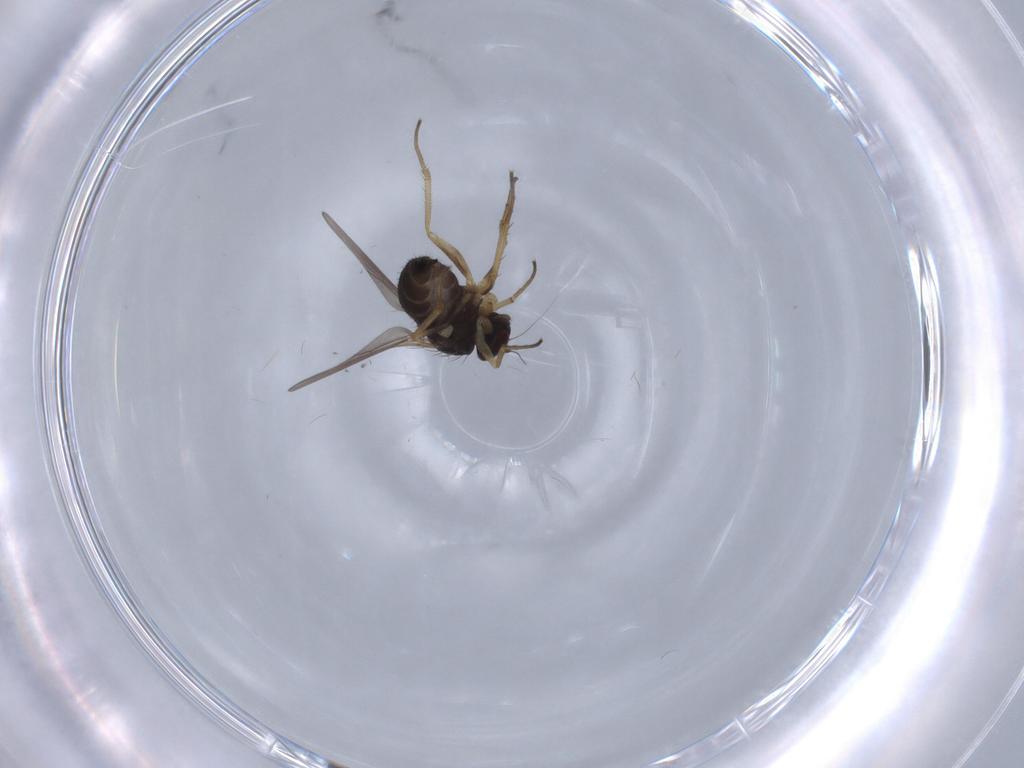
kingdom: Animalia
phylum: Arthropoda
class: Insecta
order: Diptera
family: Dolichopodidae
